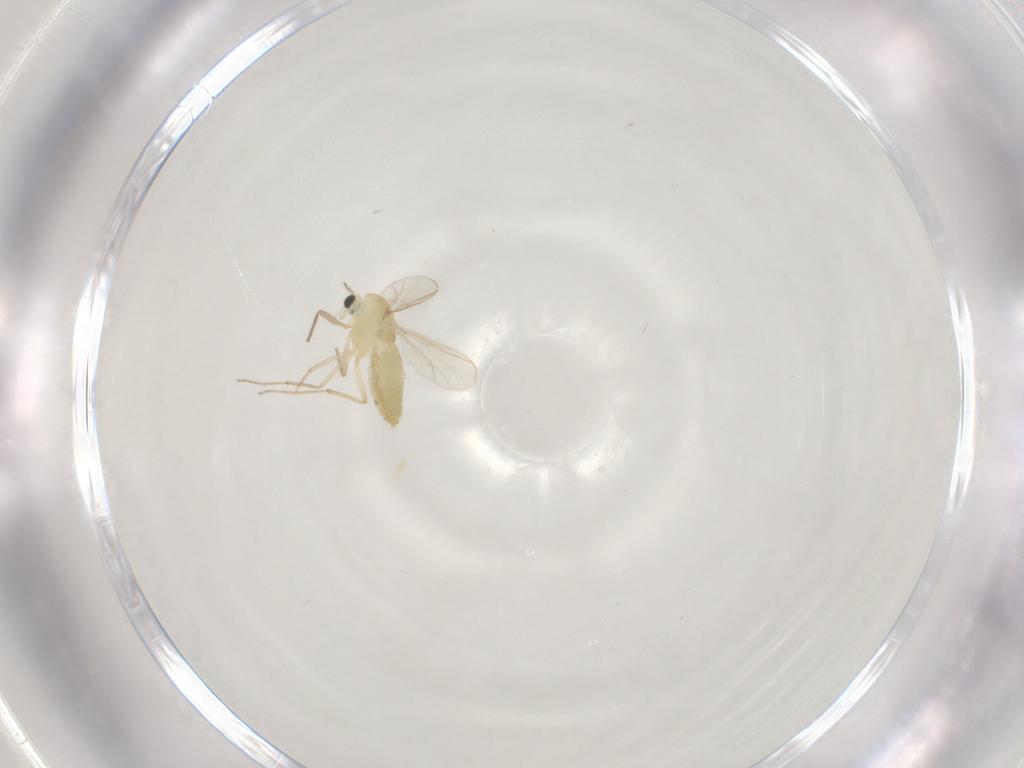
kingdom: Animalia
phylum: Arthropoda
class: Insecta
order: Diptera
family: Chironomidae
